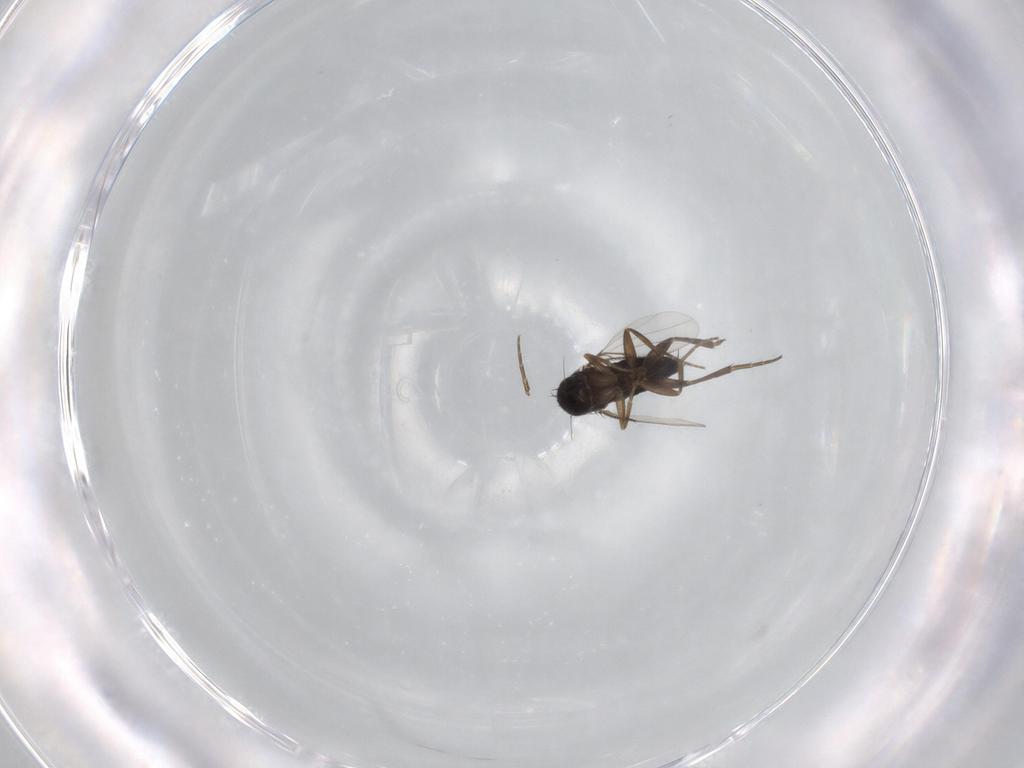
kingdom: Animalia
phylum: Arthropoda
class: Insecta
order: Diptera
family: Phoridae
